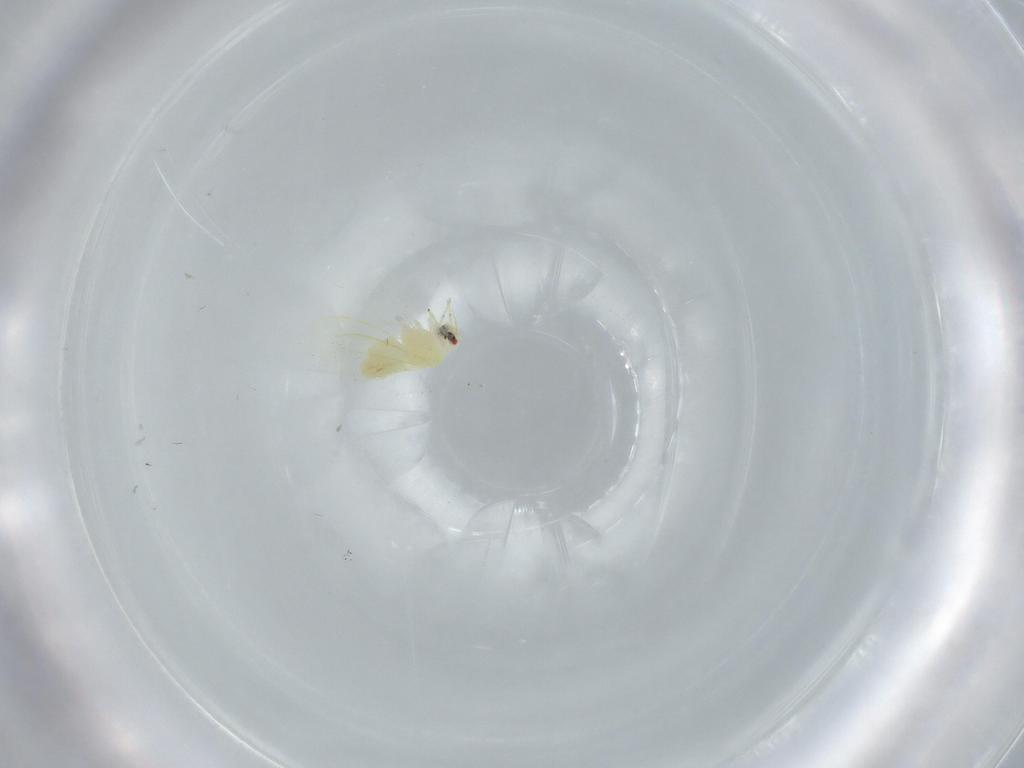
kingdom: Animalia
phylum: Arthropoda
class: Insecta
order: Hemiptera
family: Aleyrodidae
